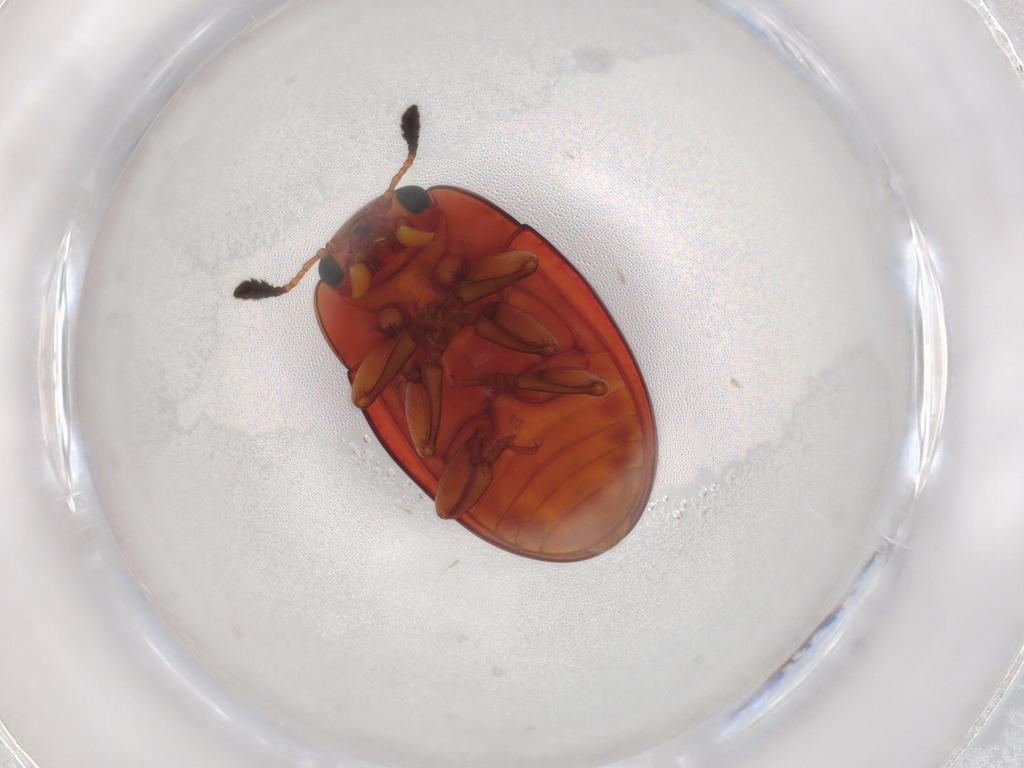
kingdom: Animalia
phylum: Arthropoda
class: Insecta
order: Coleoptera
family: Erotylidae
